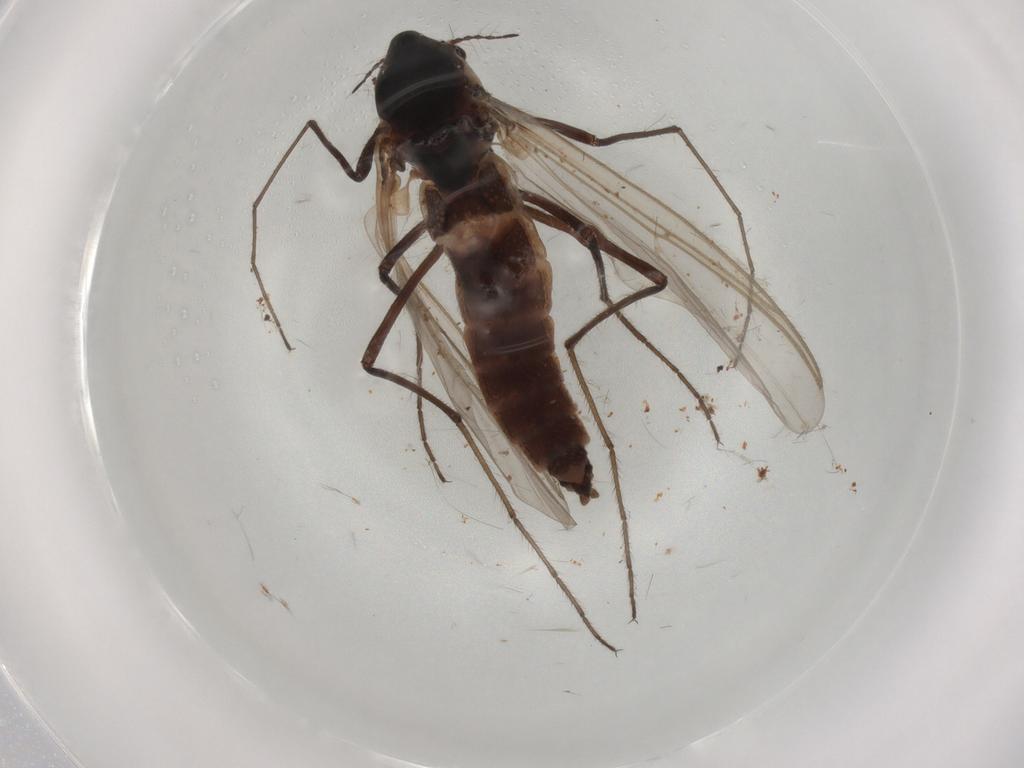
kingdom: Animalia
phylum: Arthropoda
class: Insecta
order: Diptera
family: Chironomidae
